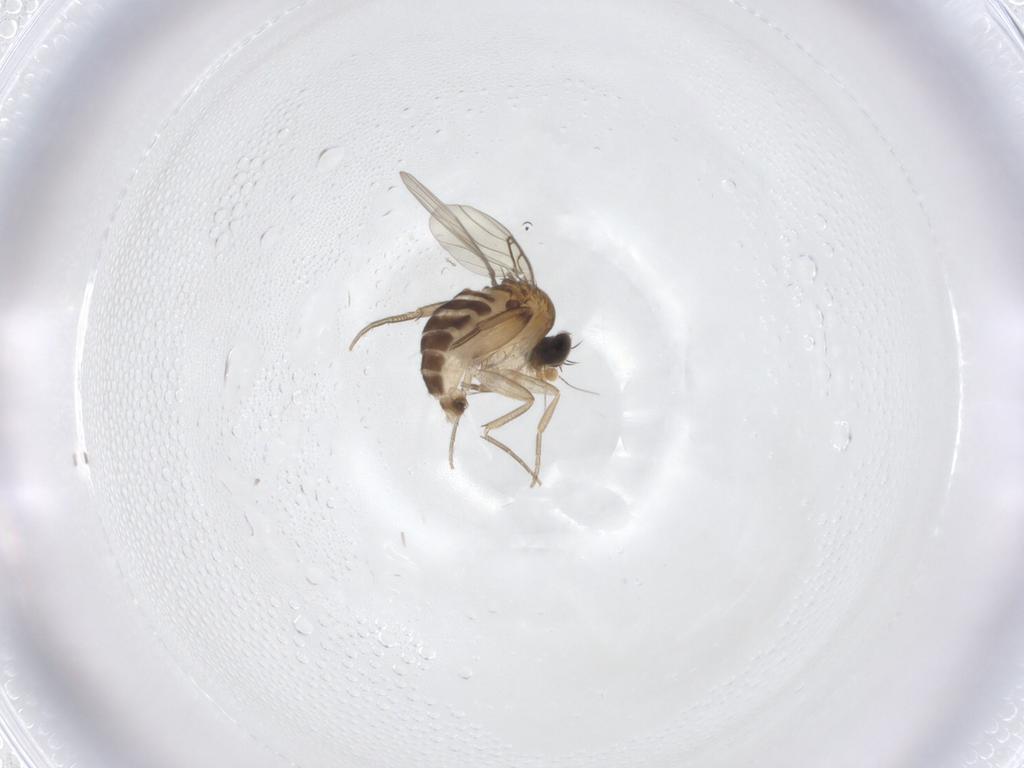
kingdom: Animalia
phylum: Arthropoda
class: Insecta
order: Diptera
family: Phoridae
